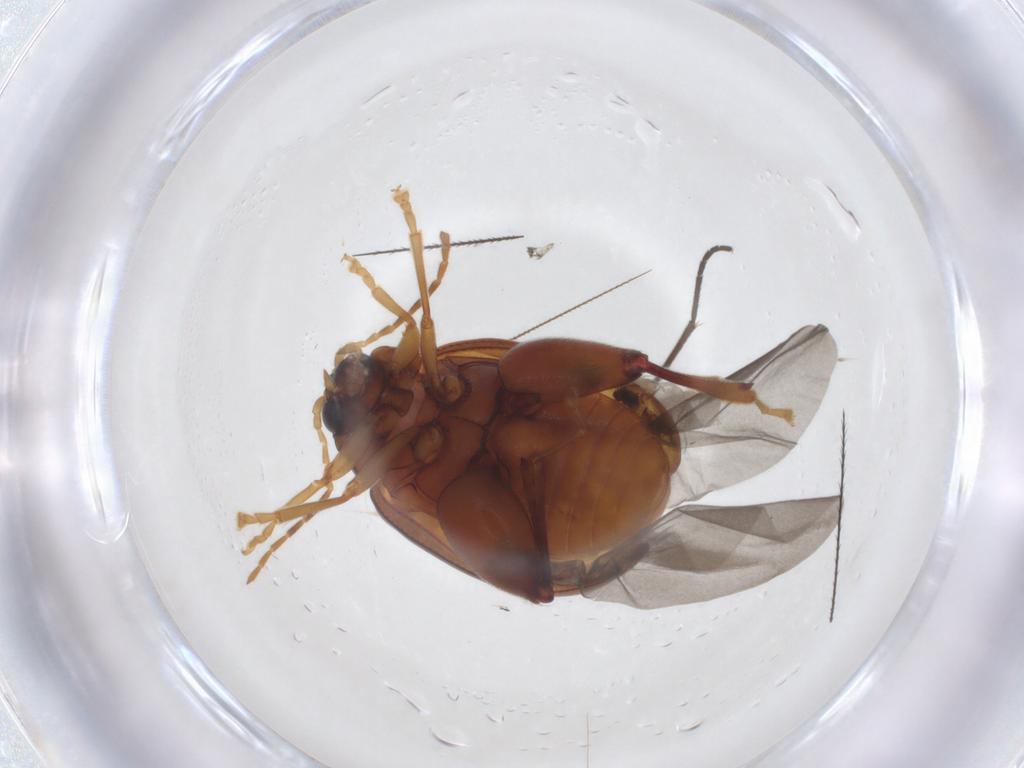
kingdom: Animalia
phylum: Arthropoda
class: Insecta
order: Coleoptera
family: Chrysomelidae
